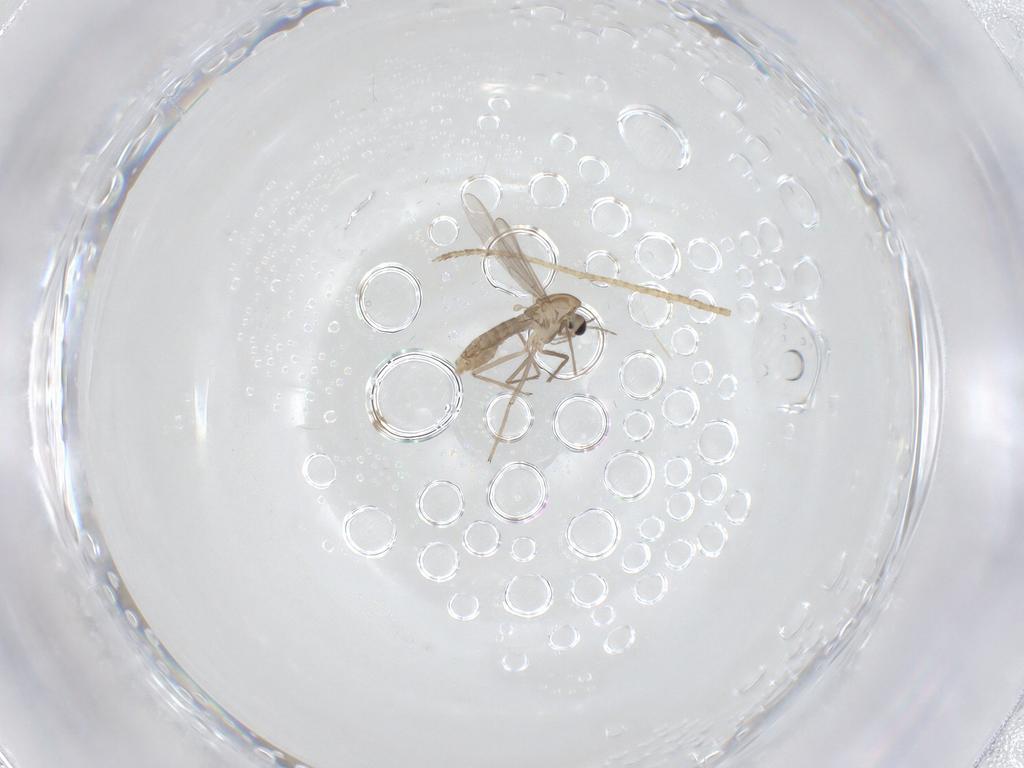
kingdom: Animalia
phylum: Arthropoda
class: Insecta
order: Diptera
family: Chironomidae
